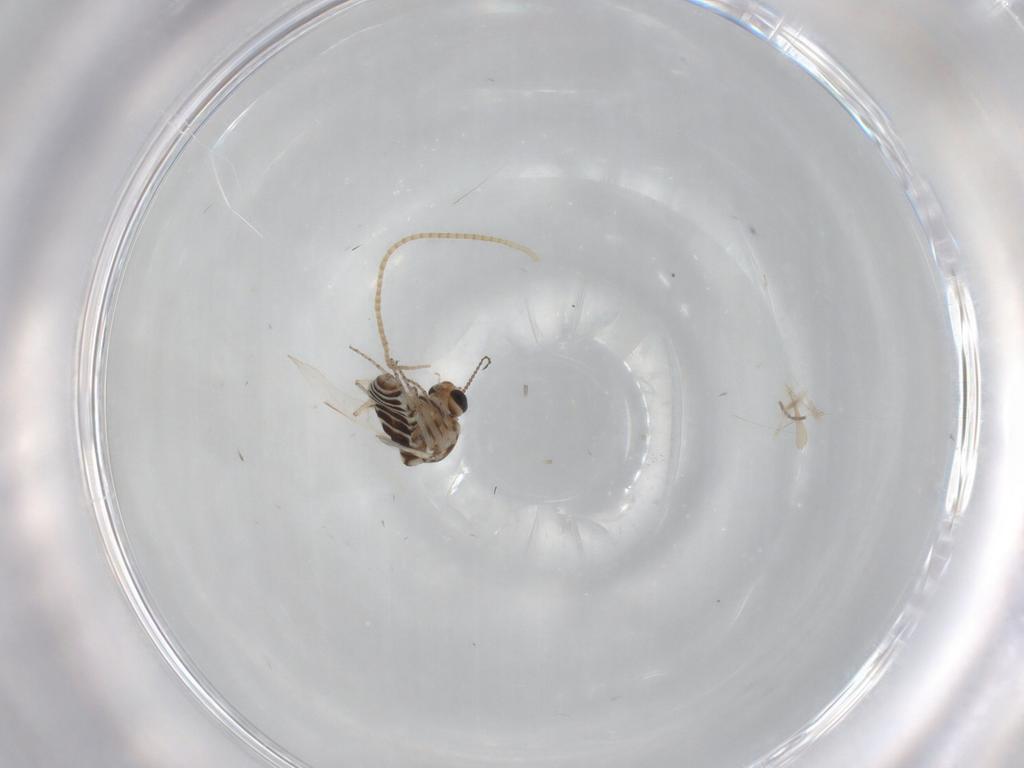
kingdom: Animalia
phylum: Arthropoda
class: Insecta
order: Diptera
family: Ceratopogonidae
